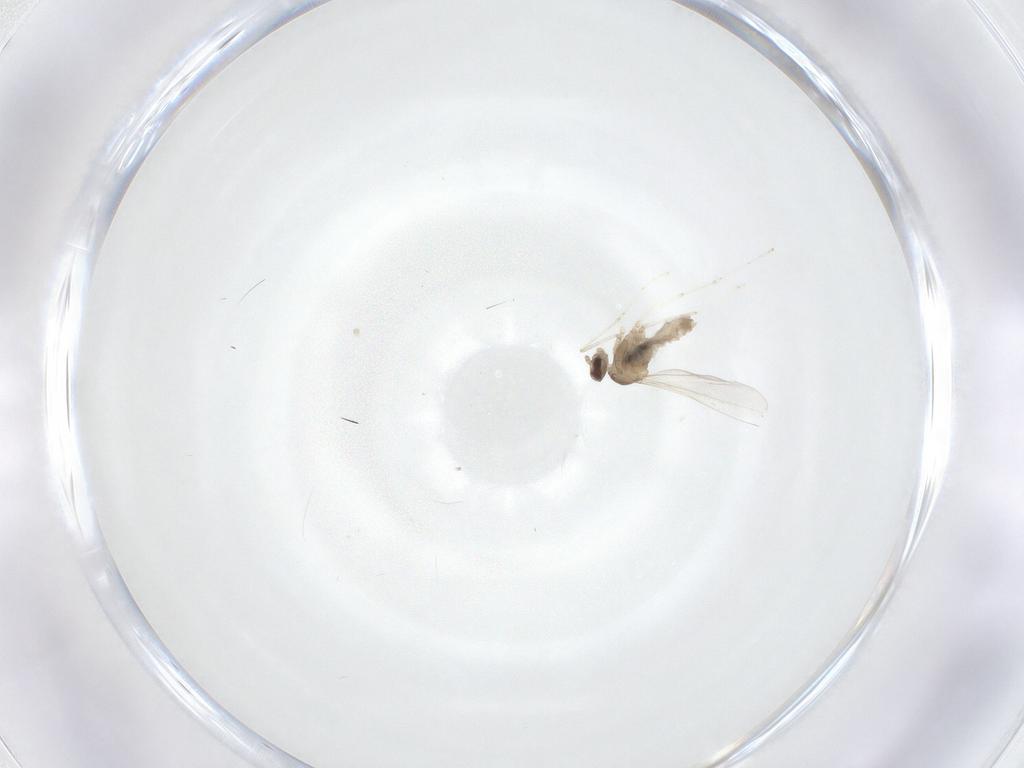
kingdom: Animalia
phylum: Arthropoda
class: Insecta
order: Diptera
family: Cecidomyiidae
